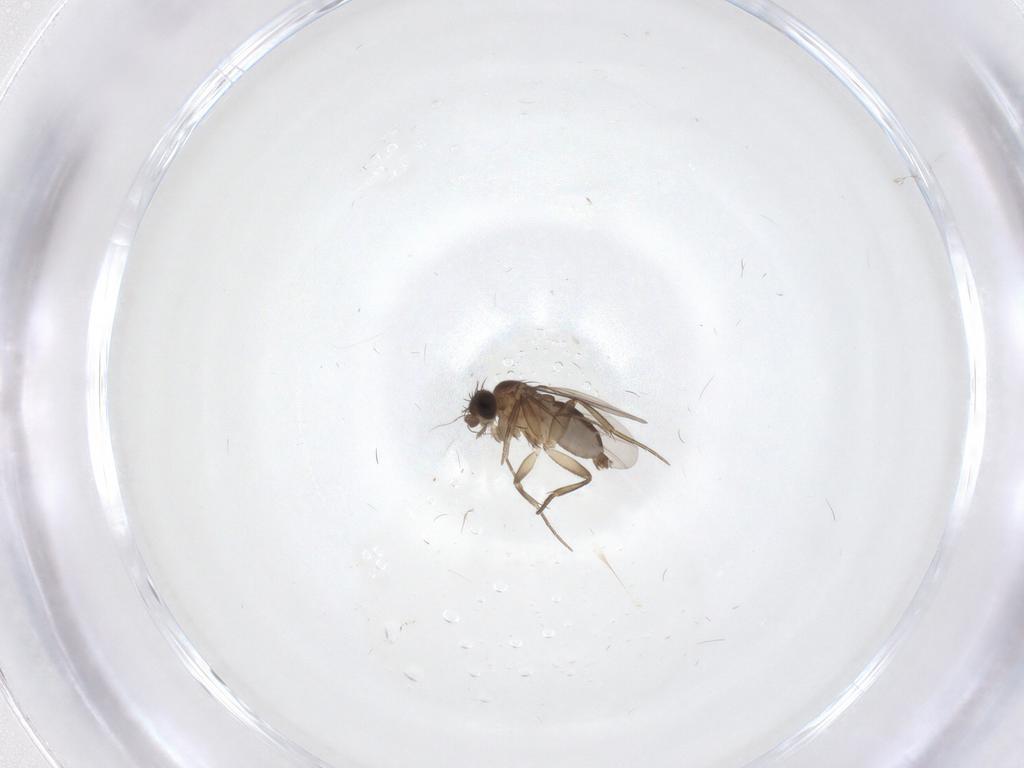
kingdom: Animalia
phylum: Arthropoda
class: Insecta
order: Diptera
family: Phoridae
